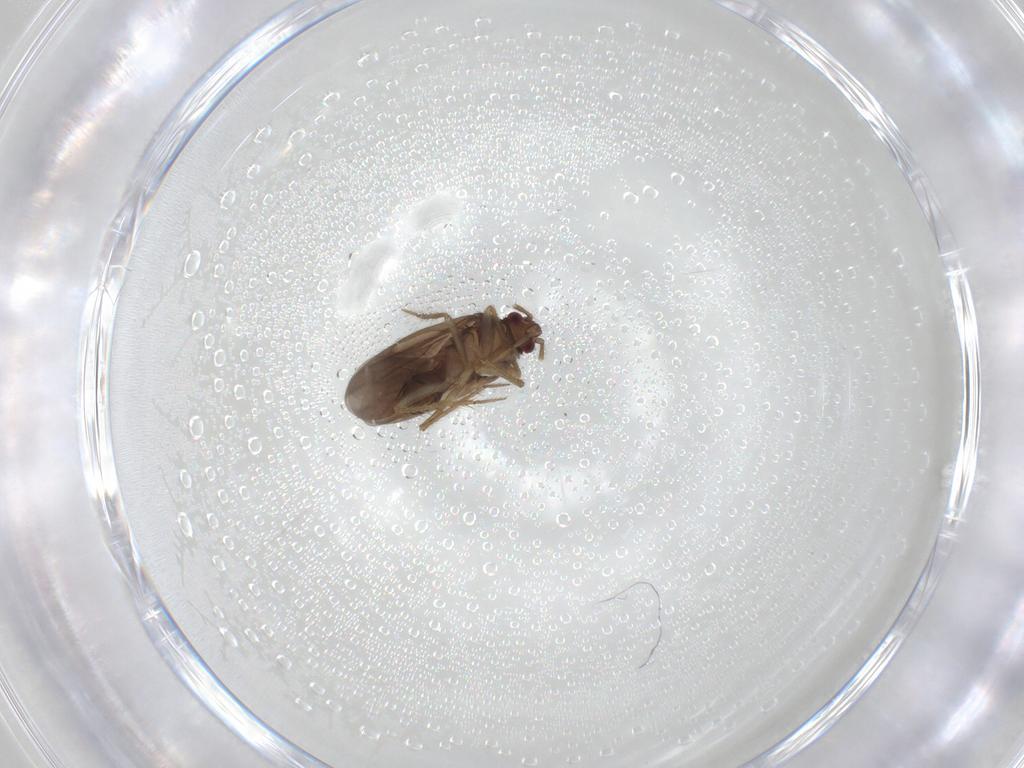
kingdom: Animalia
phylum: Arthropoda
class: Insecta
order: Hemiptera
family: Ceratocombidae
